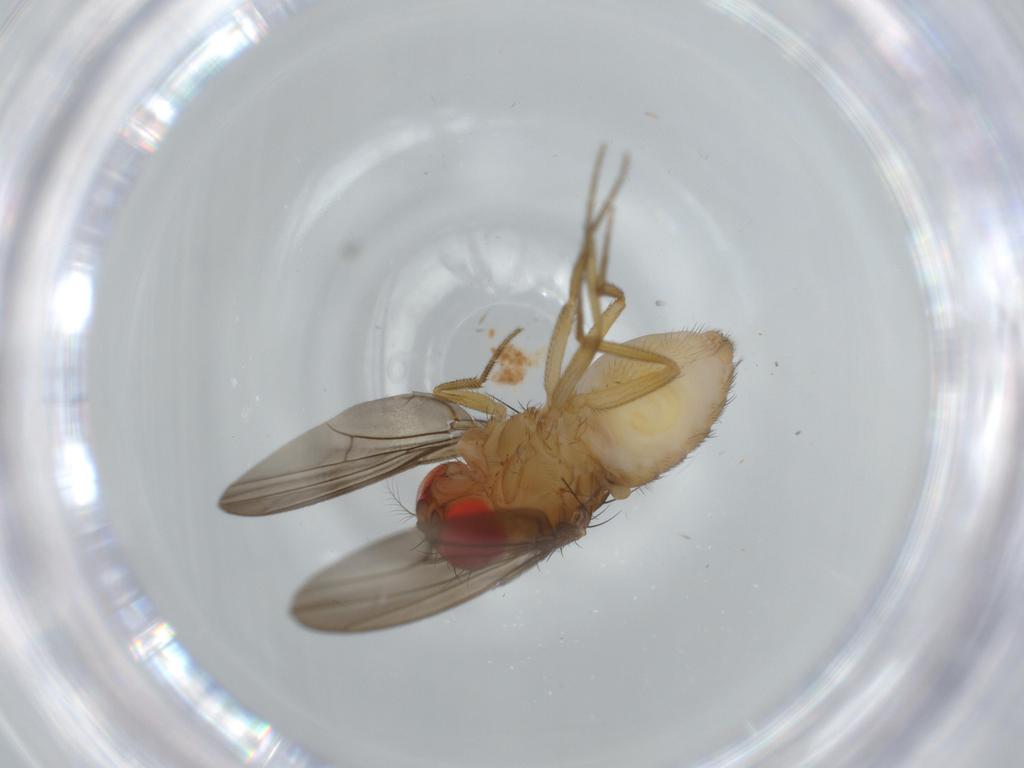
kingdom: Animalia
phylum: Arthropoda
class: Insecta
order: Diptera
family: Drosophilidae
